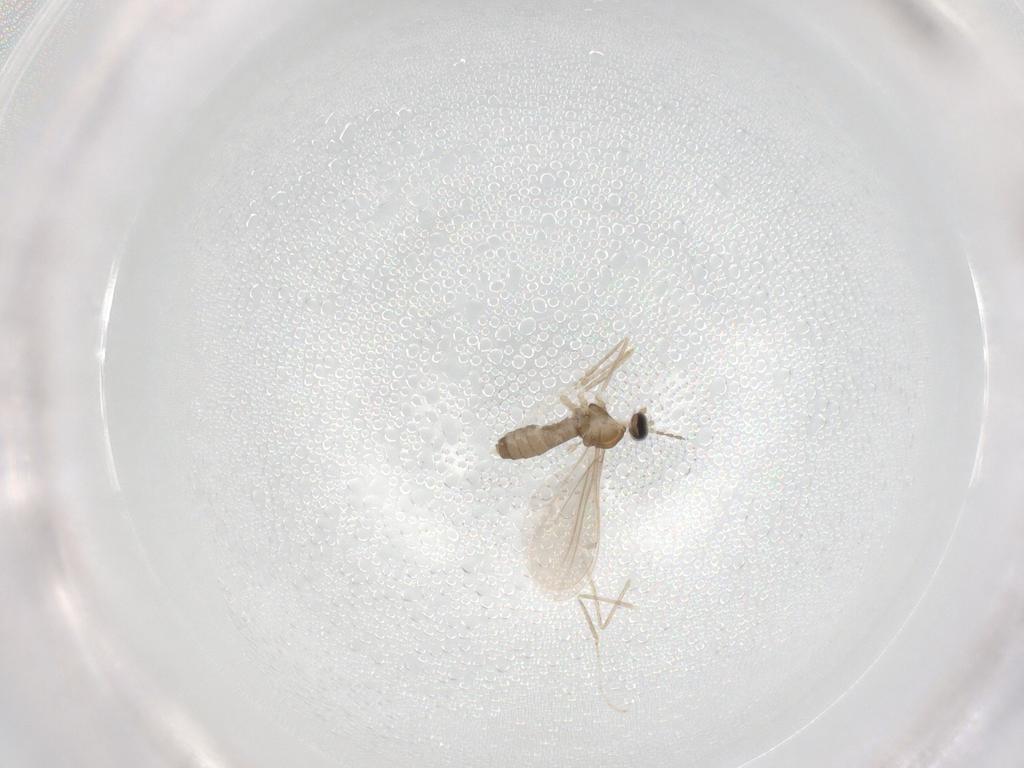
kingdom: Animalia
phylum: Arthropoda
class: Insecta
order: Diptera
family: Cecidomyiidae
